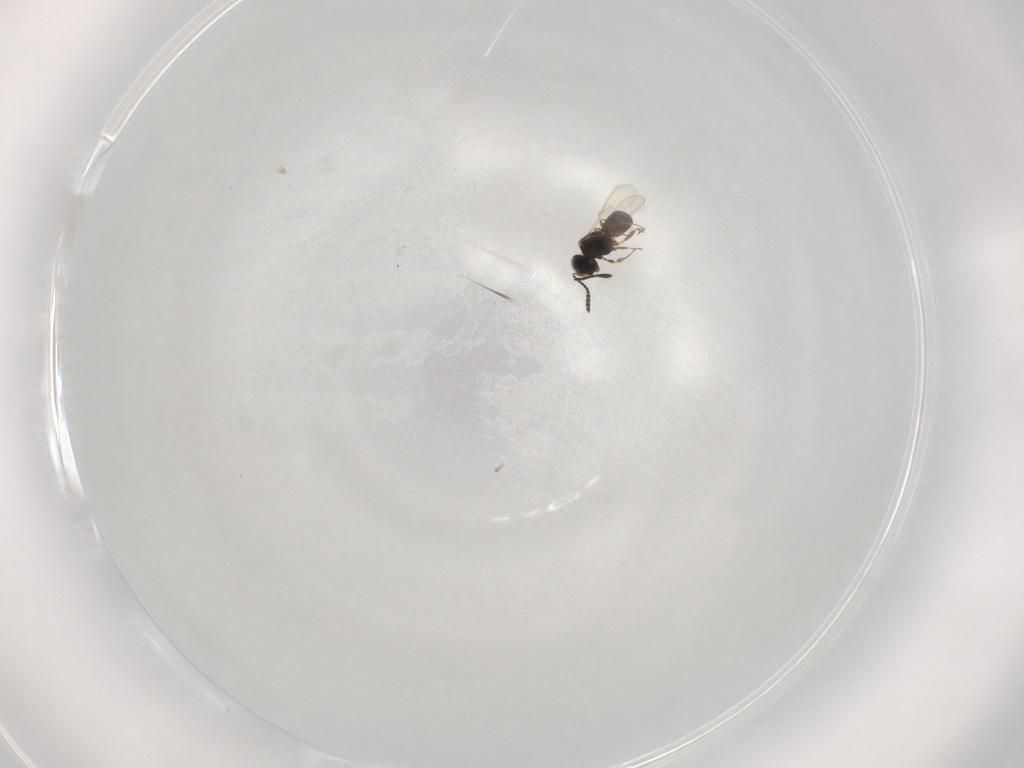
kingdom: Animalia
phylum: Arthropoda
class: Insecta
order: Hymenoptera
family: Scelionidae
